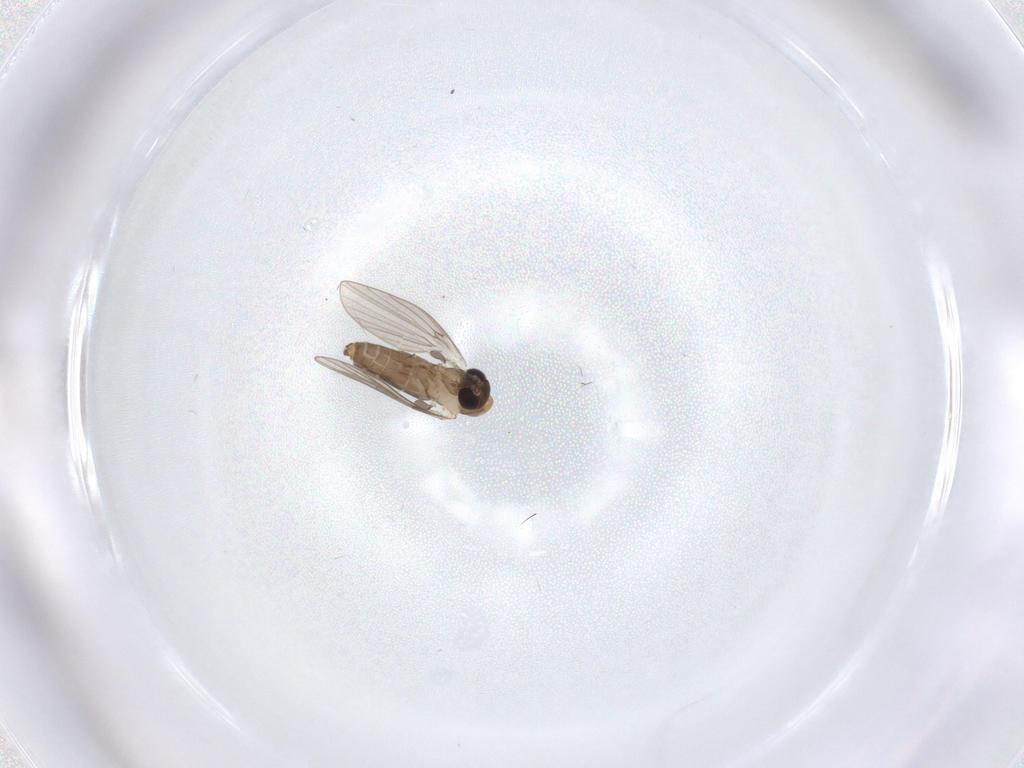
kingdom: Animalia
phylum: Arthropoda
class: Insecta
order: Diptera
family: Psychodidae
